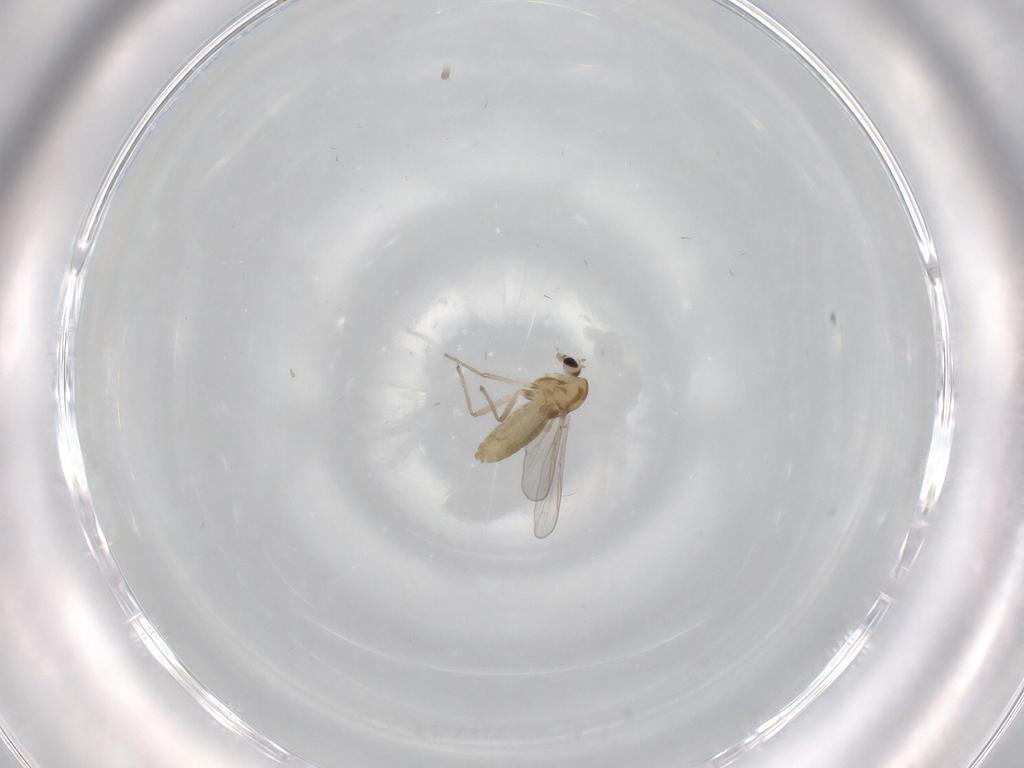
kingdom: Animalia
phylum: Arthropoda
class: Insecta
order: Diptera
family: Chironomidae
